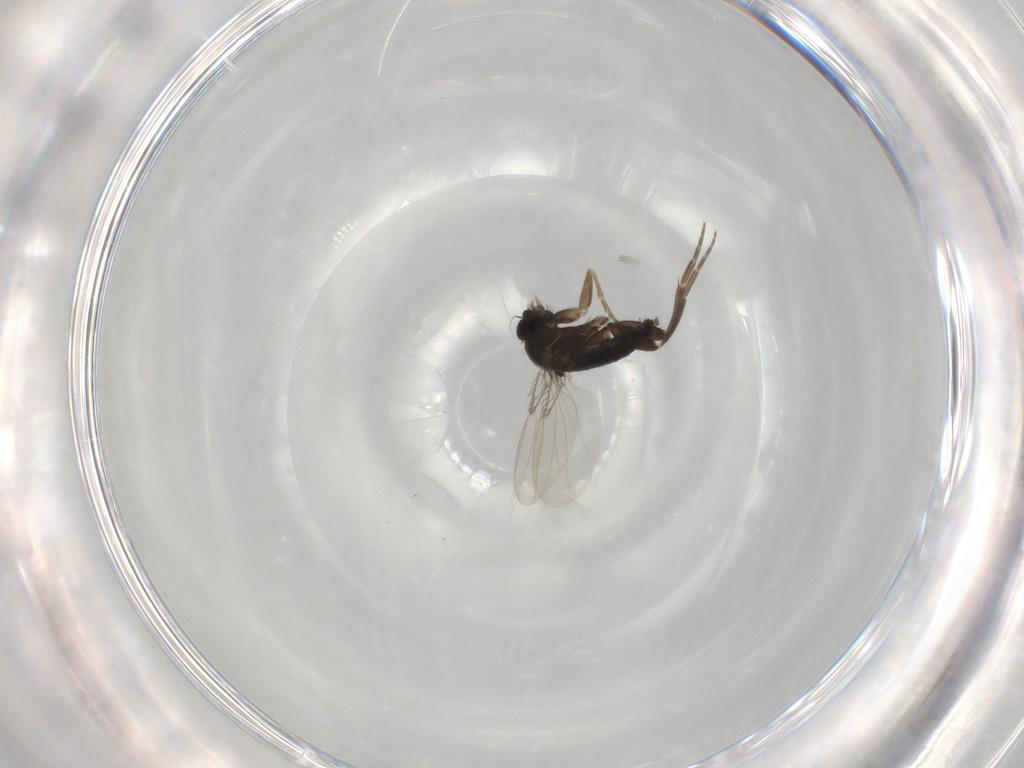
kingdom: Animalia
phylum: Arthropoda
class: Insecta
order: Diptera
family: Phoridae
